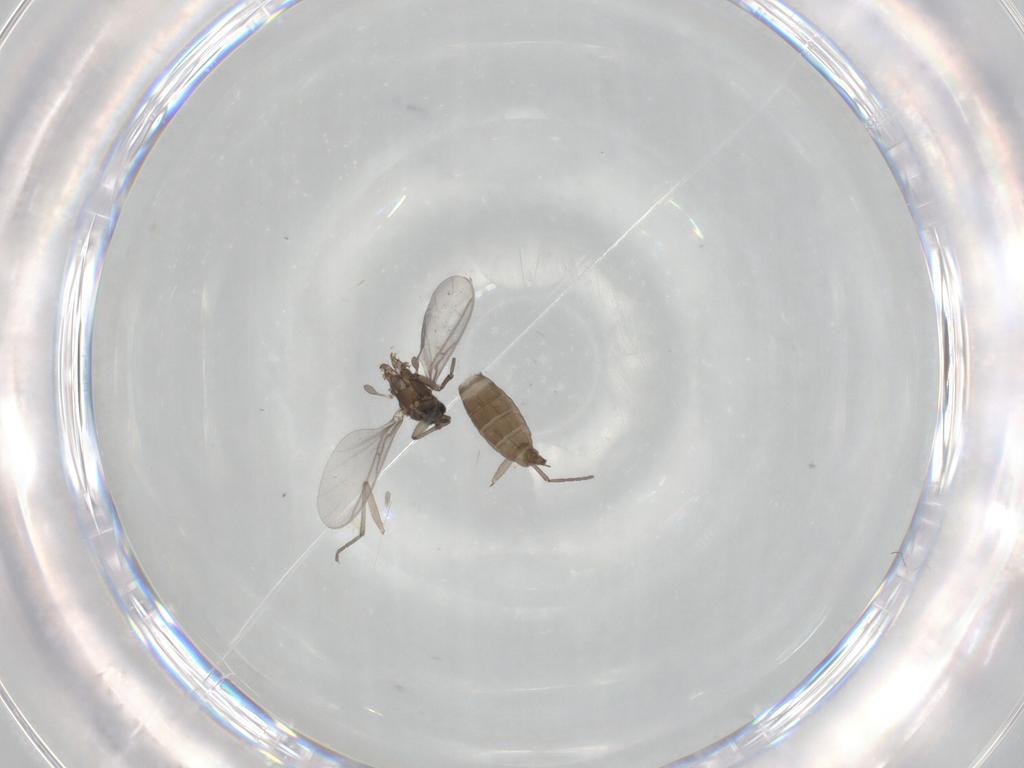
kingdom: Animalia
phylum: Arthropoda
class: Insecta
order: Diptera
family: Sciaridae
